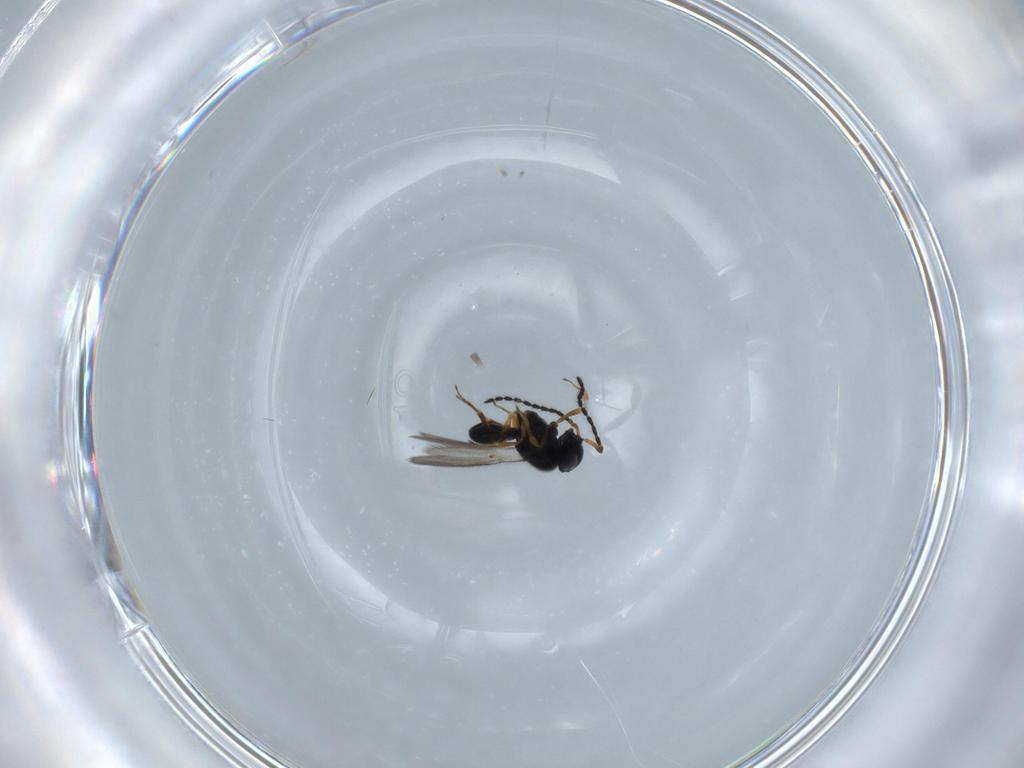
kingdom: Animalia
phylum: Arthropoda
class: Insecta
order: Hymenoptera
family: Scelionidae
